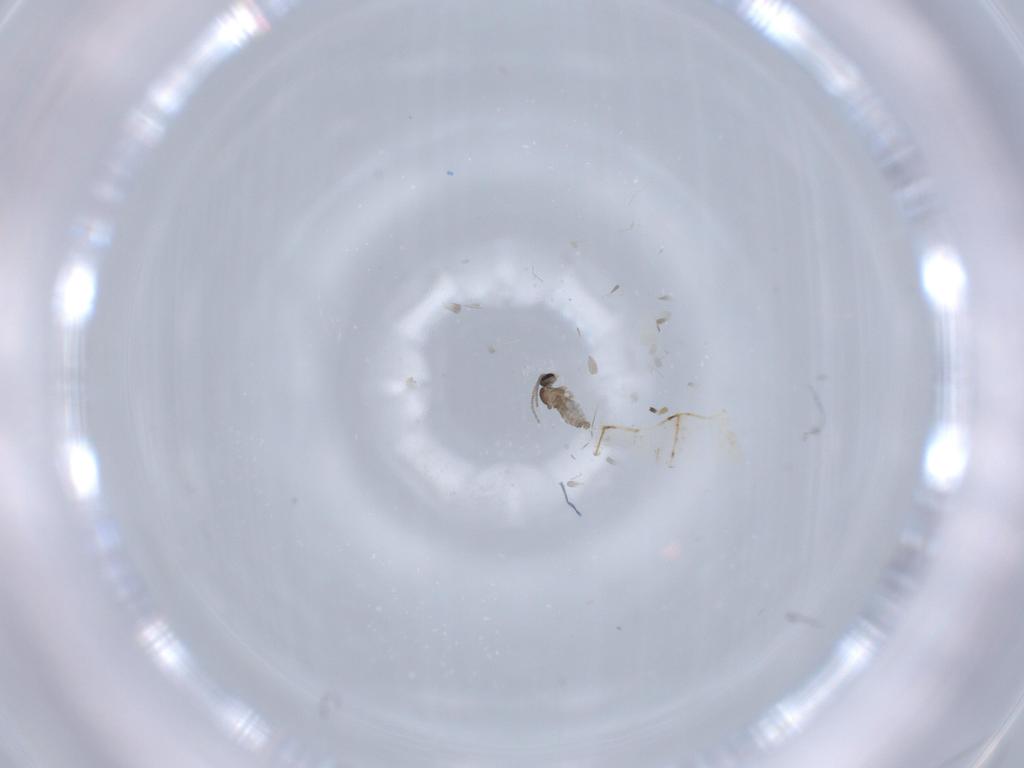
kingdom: Animalia
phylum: Arthropoda
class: Insecta
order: Diptera
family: Cecidomyiidae
